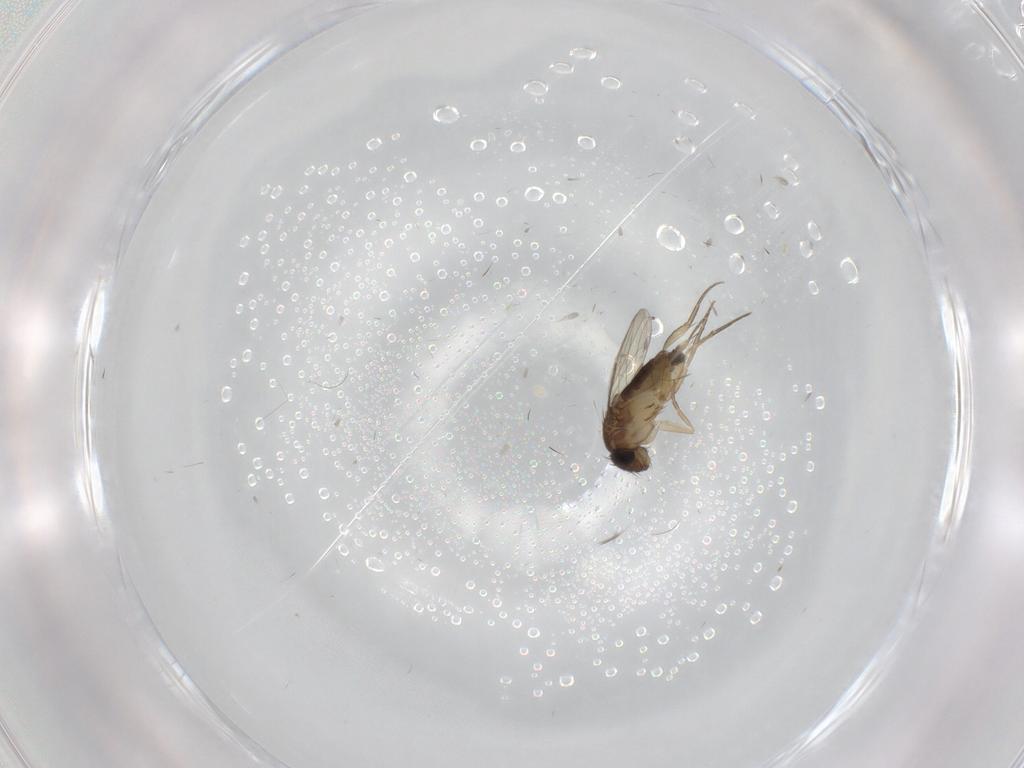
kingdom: Animalia
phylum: Arthropoda
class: Insecta
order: Diptera
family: Phoridae
